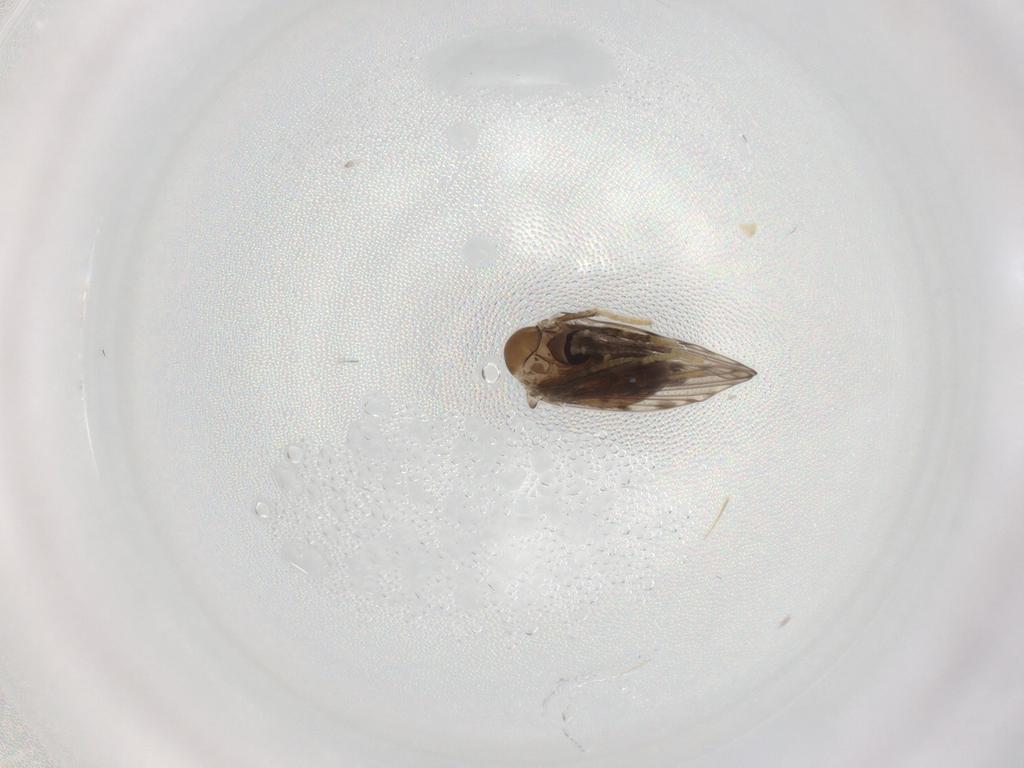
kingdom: Animalia
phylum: Arthropoda
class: Insecta
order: Diptera
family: Psychodidae
